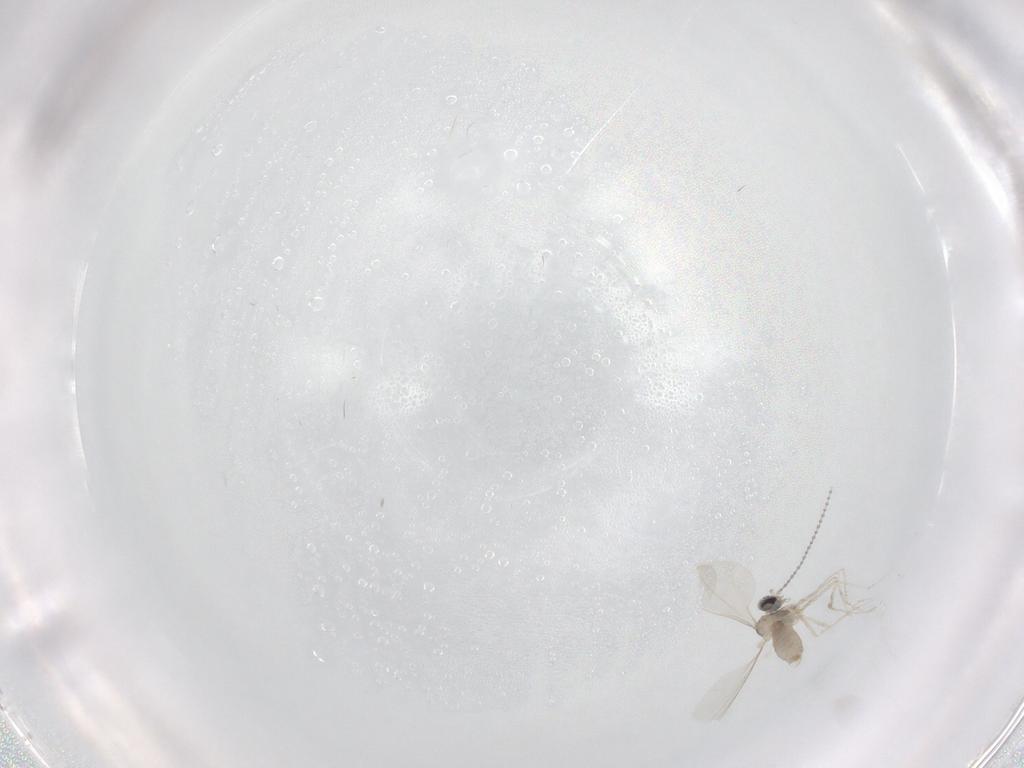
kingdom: Animalia
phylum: Arthropoda
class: Insecta
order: Diptera
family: Cecidomyiidae
